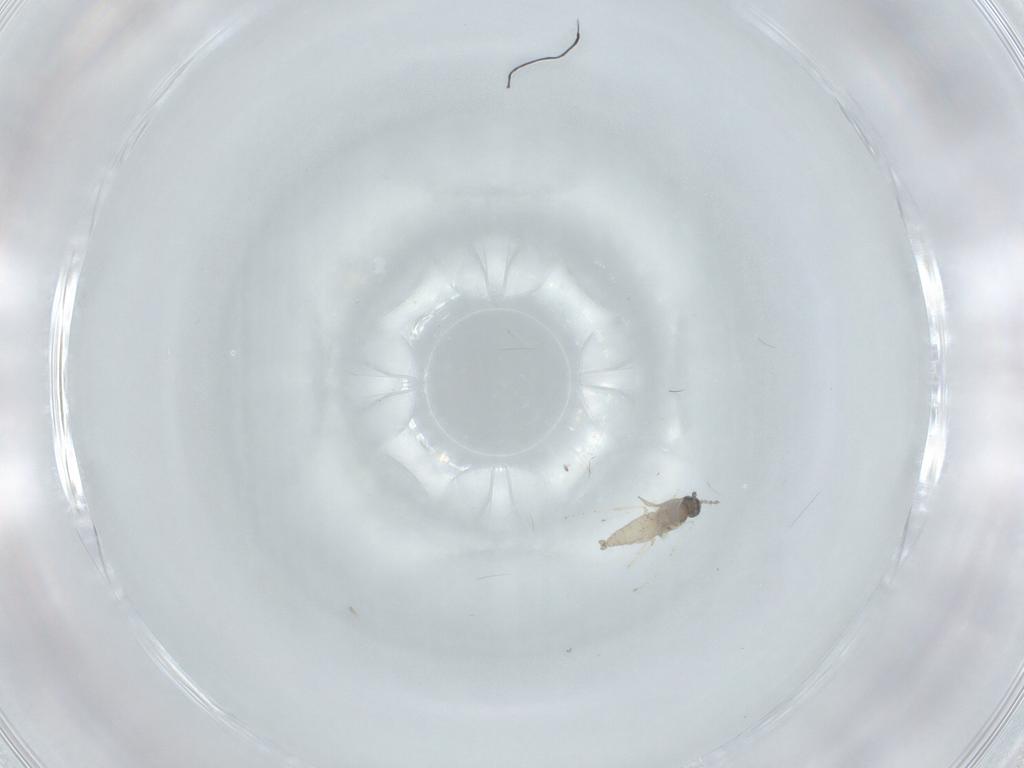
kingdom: Animalia
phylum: Arthropoda
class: Insecta
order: Diptera
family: Cecidomyiidae
